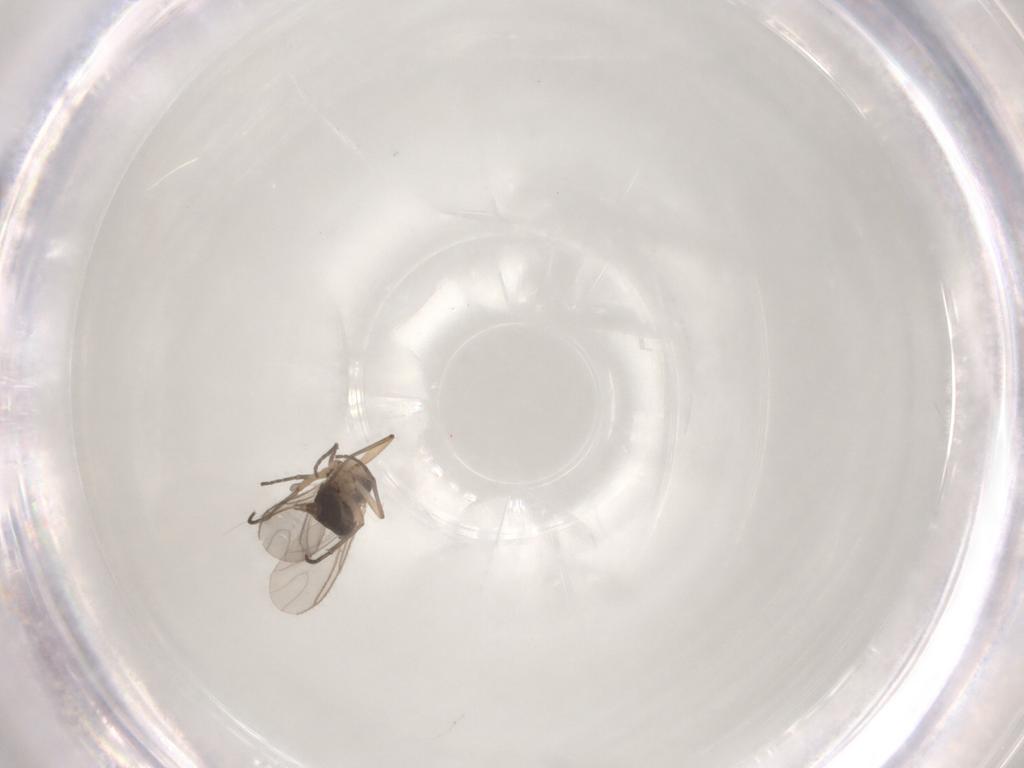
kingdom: Animalia
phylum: Arthropoda
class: Insecta
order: Diptera
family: Sciaridae
